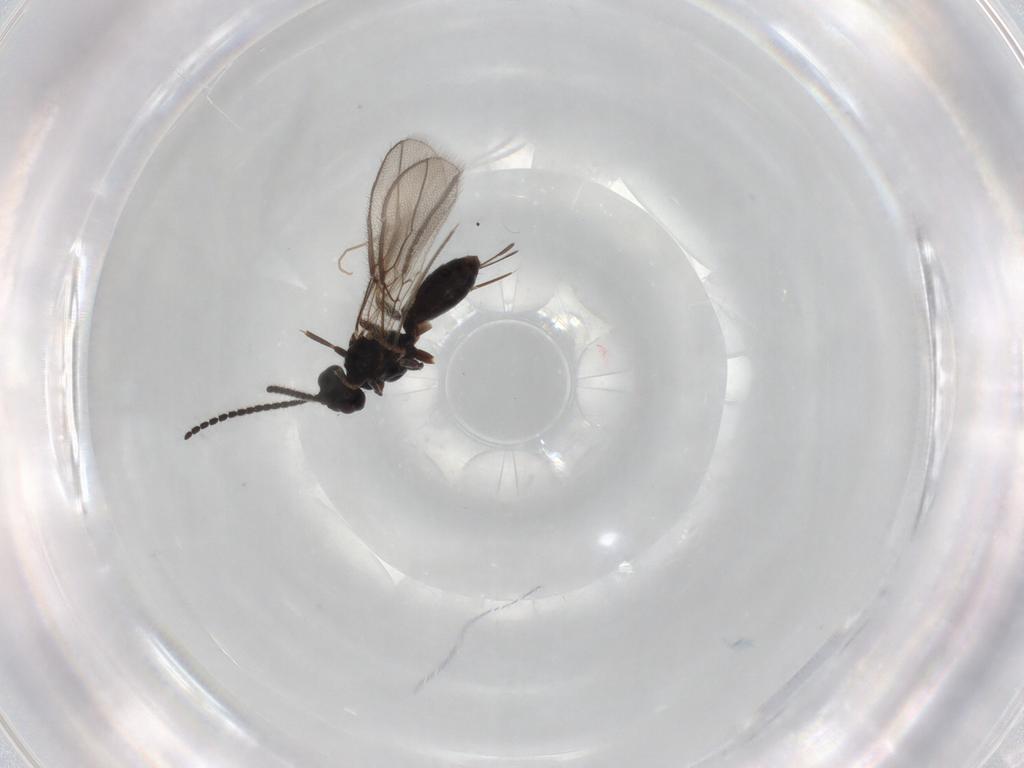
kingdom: Animalia
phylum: Arthropoda
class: Insecta
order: Hymenoptera
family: Braconidae
